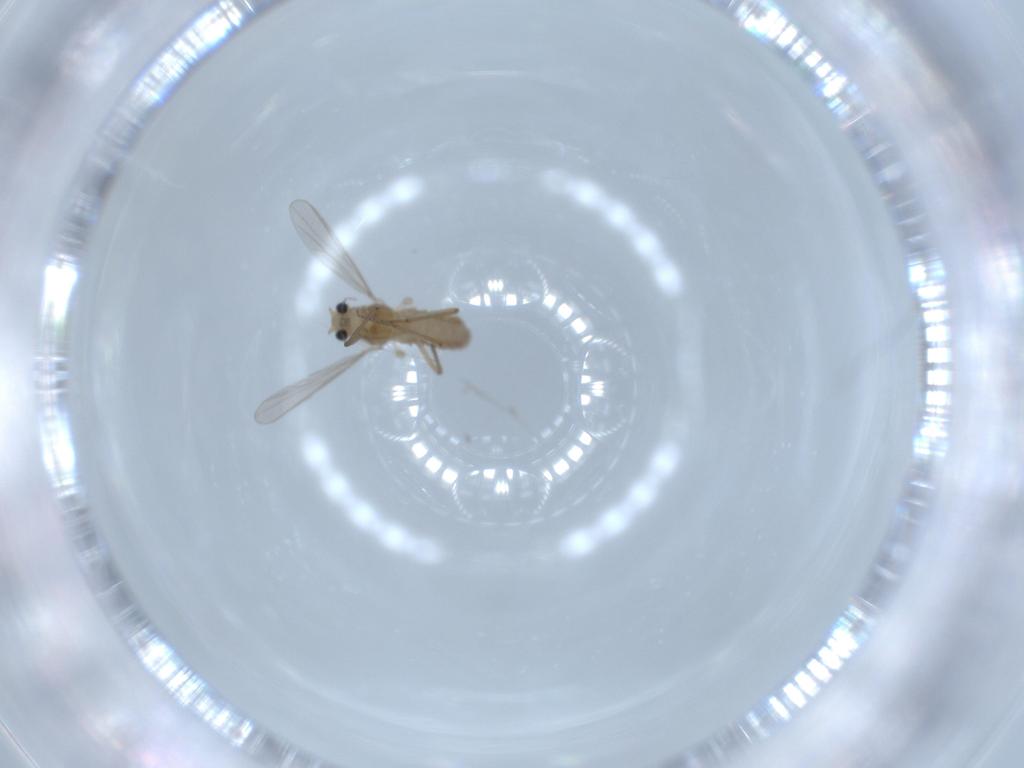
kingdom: Animalia
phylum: Arthropoda
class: Insecta
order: Diptera
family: Chironomidae
